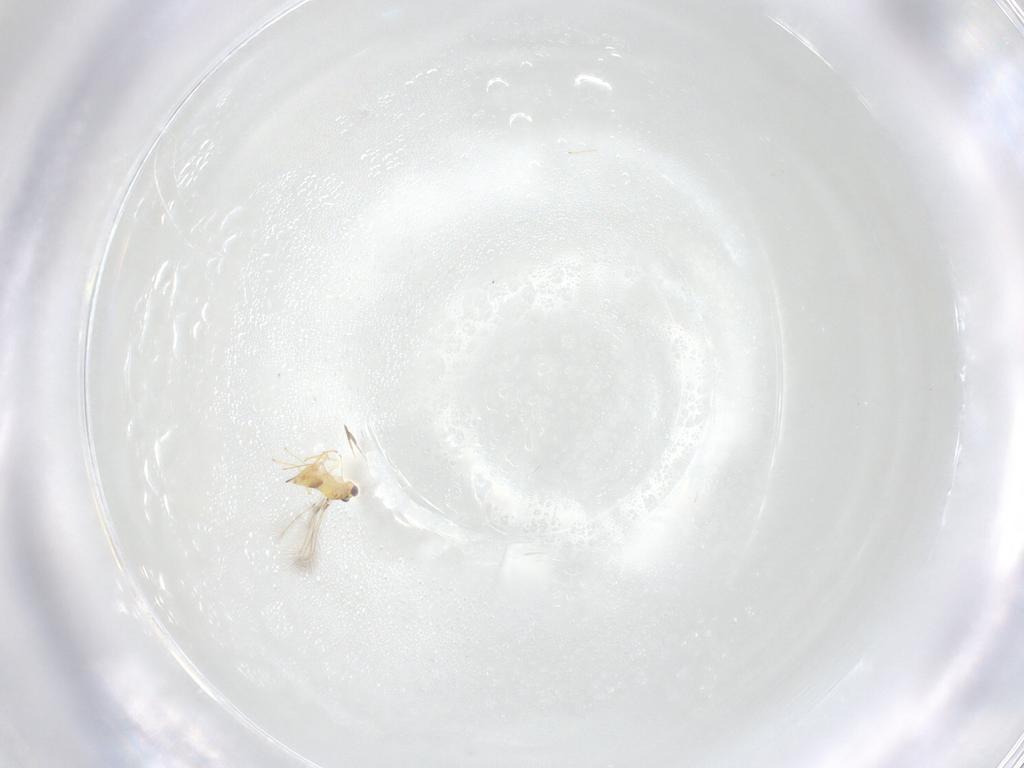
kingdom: Animalia
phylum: Arthropoda
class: Insecta
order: Hymenoptera
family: Mymaridae
